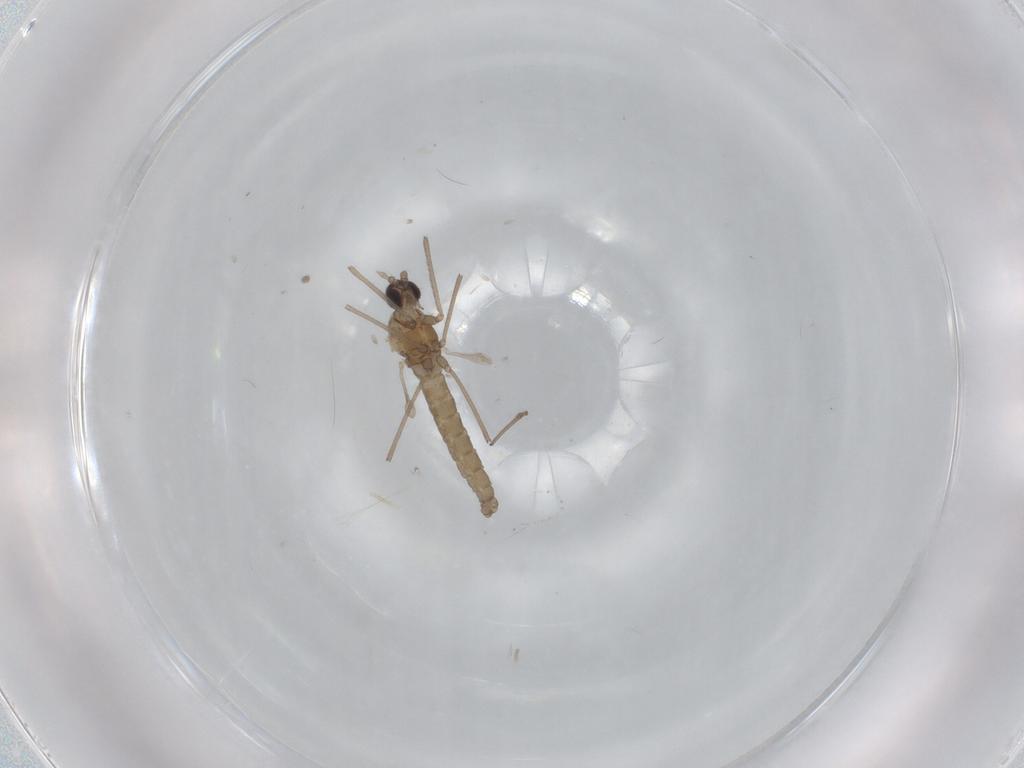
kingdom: Animalia
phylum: Arthropoda
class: Insecta
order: Diptera
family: Cecidomyiidae
